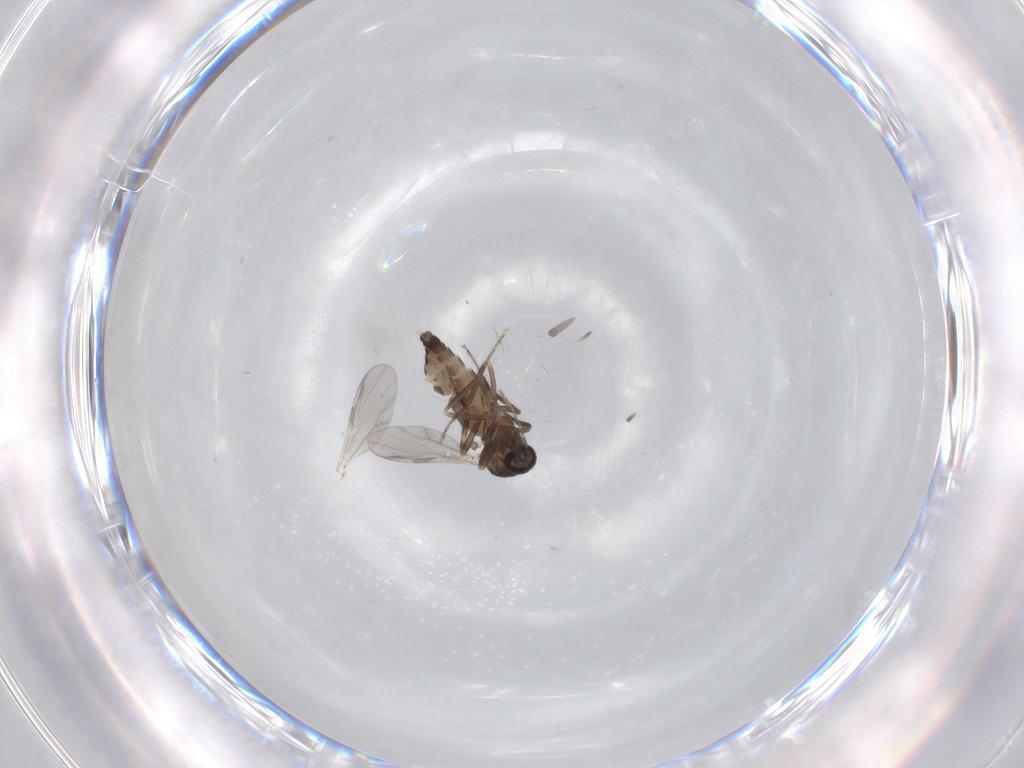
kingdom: Animalia
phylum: Arthropoda
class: Insecta
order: Diptera
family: Ceratopogonidae
